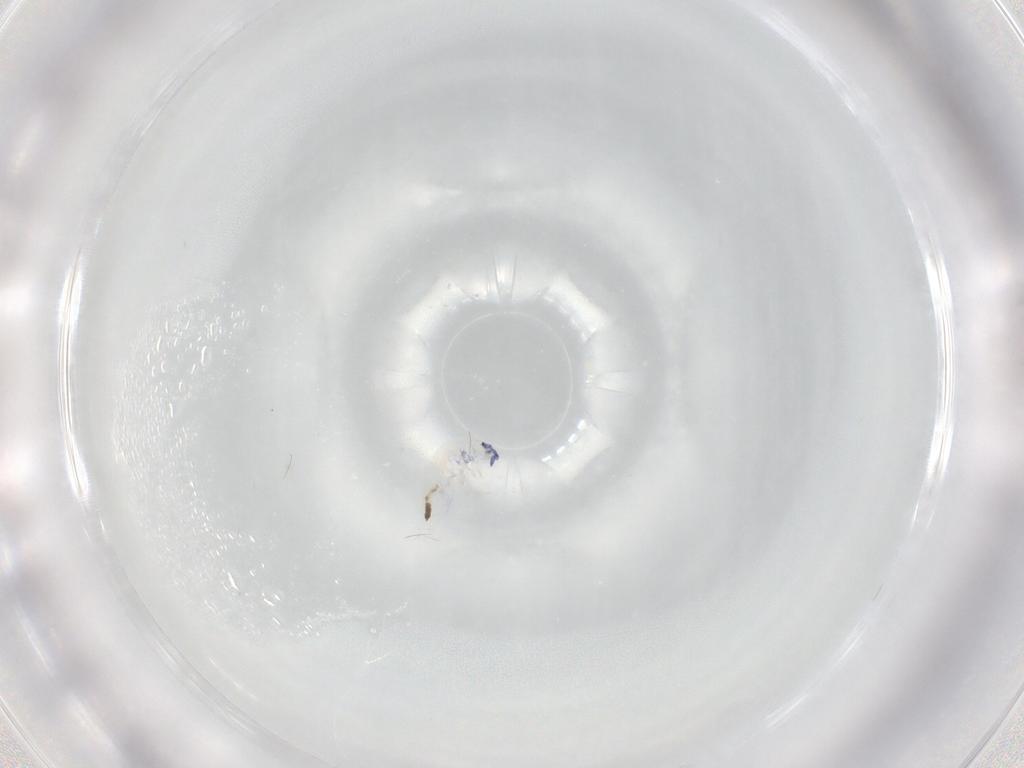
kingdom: Animalia
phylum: Arthropoda
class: Collembola
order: Entomobryomorpha
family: Entomobryidae
